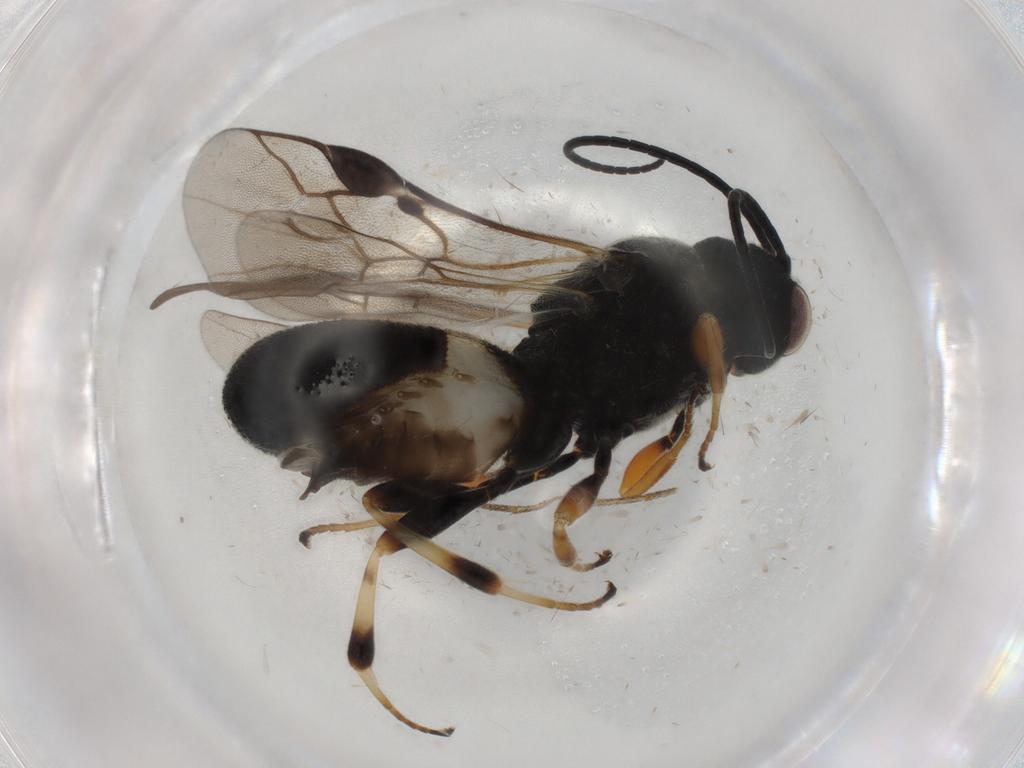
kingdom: Animalia
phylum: Arthropoda
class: Insecta
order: Hymenoptera
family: Braconidae
